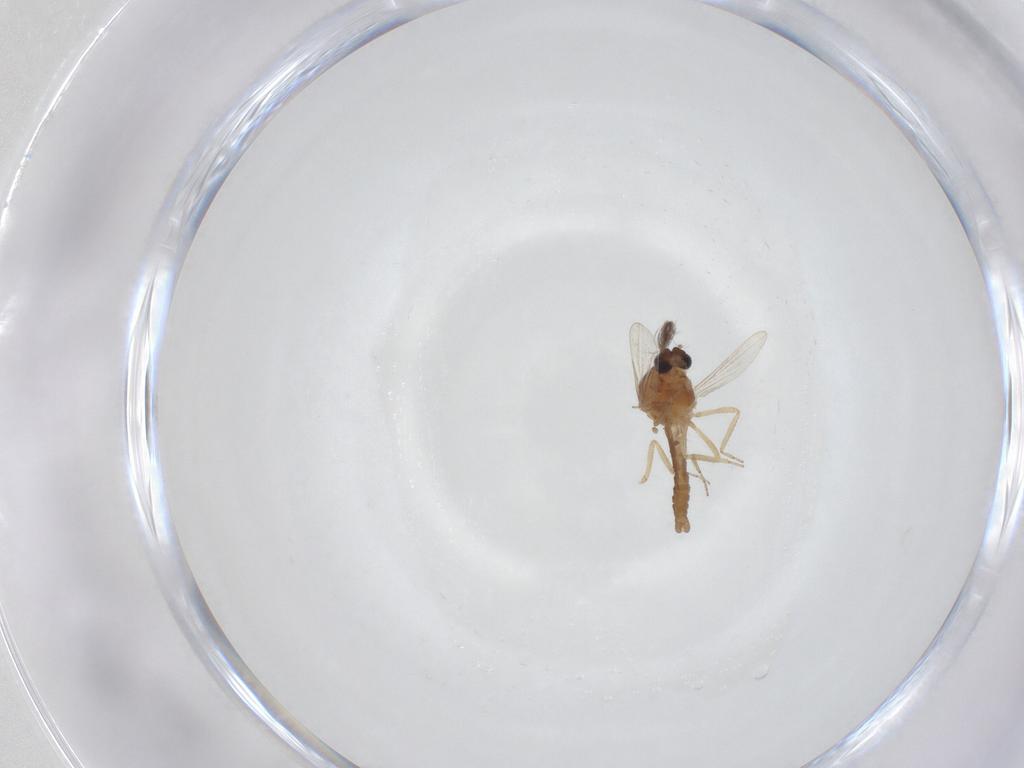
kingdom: Animalia
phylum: Arthropoda
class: Insecta
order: Diptera
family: Ceratopogonidae
